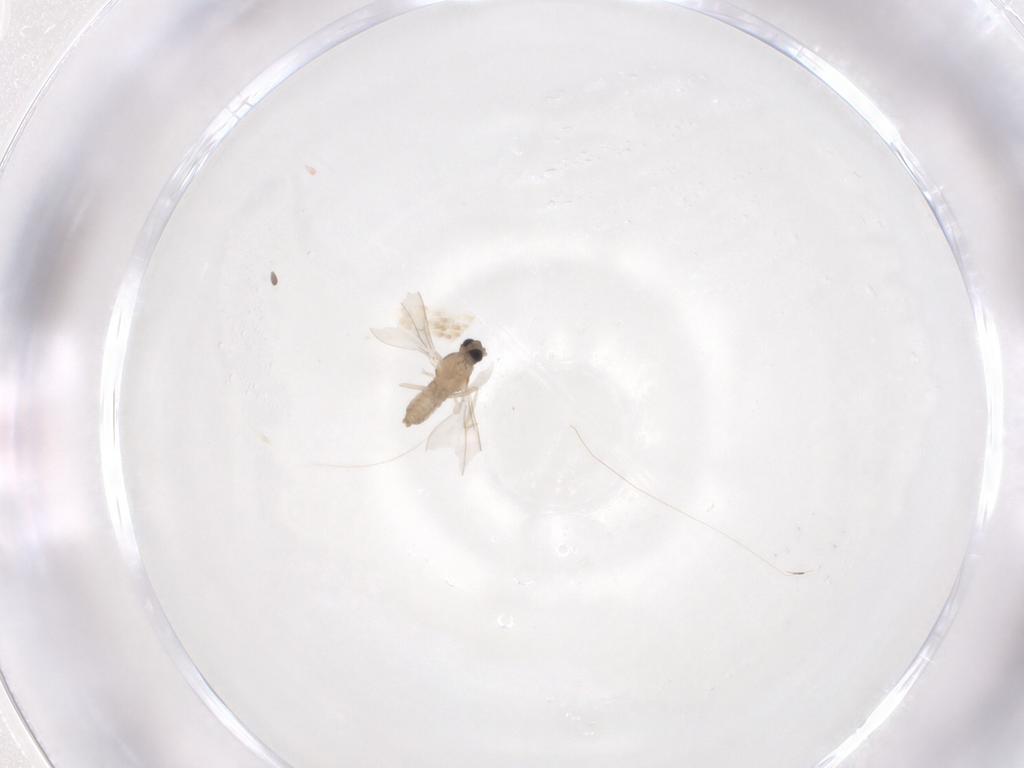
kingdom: Animalia
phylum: Arthropoda
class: Insecta
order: Diptera
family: Cecidomyiidae
